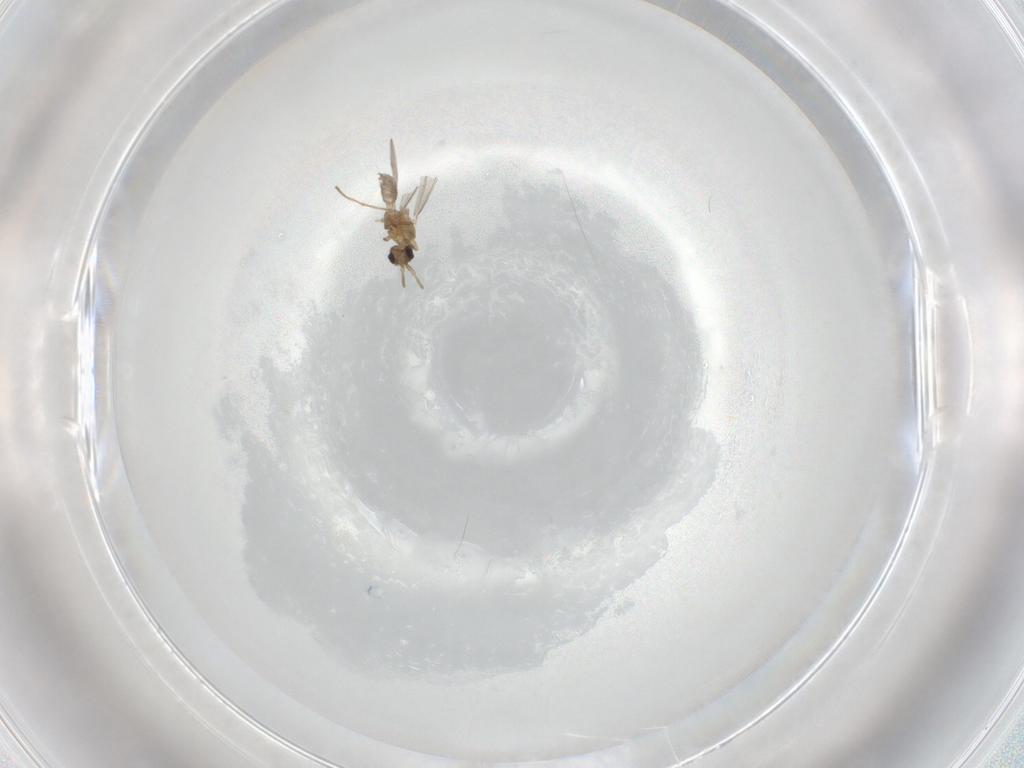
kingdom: Animalia
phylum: Arthropoda
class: Insecta
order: Hymenoptera
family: Formicidae
